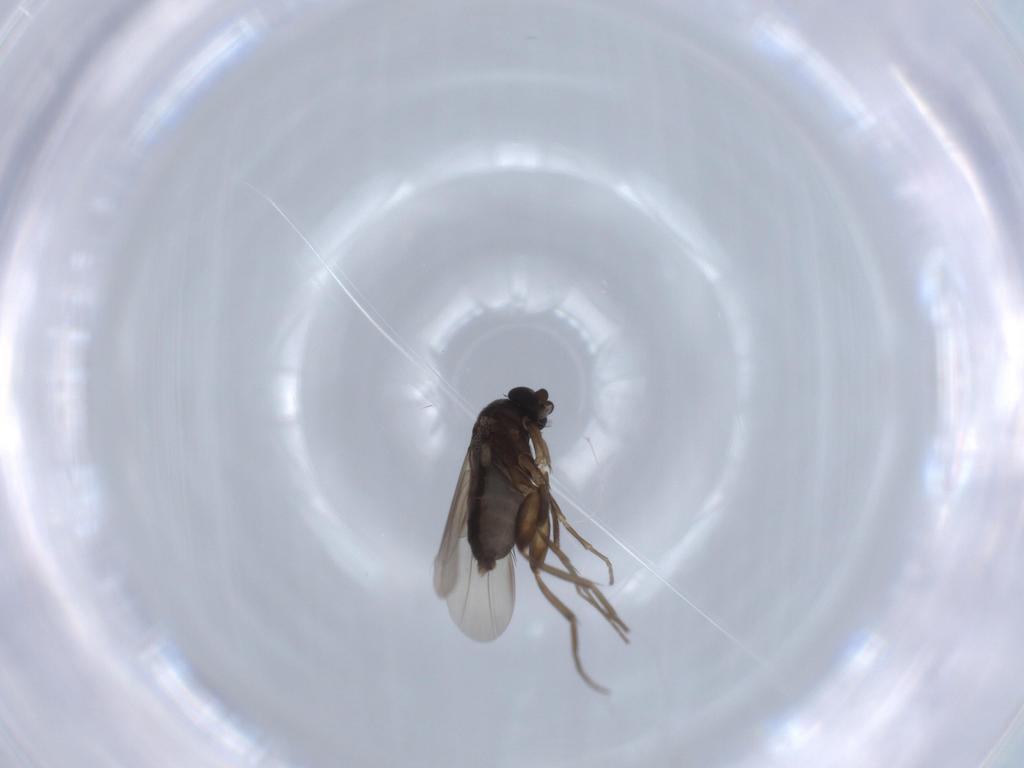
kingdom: Animalia
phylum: Arthropoda
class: Insecta
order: Diptera
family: Phoridae
